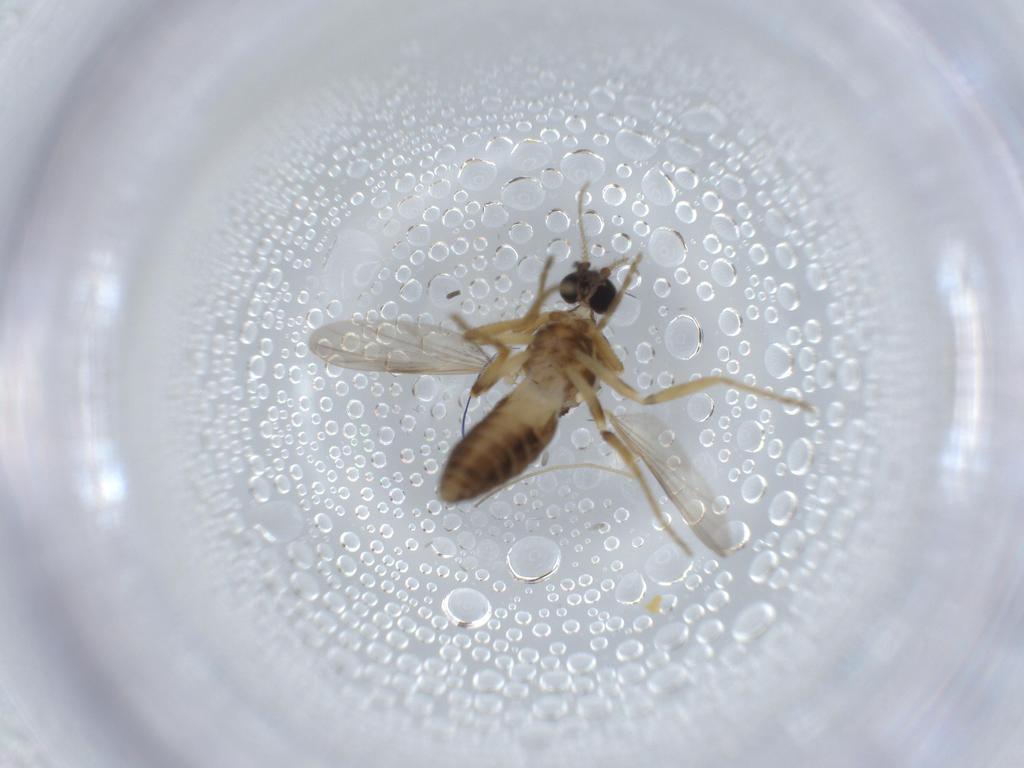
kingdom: Animalia
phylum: Arthropoda
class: Insecta
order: Diptera
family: Ceratopogonidae
